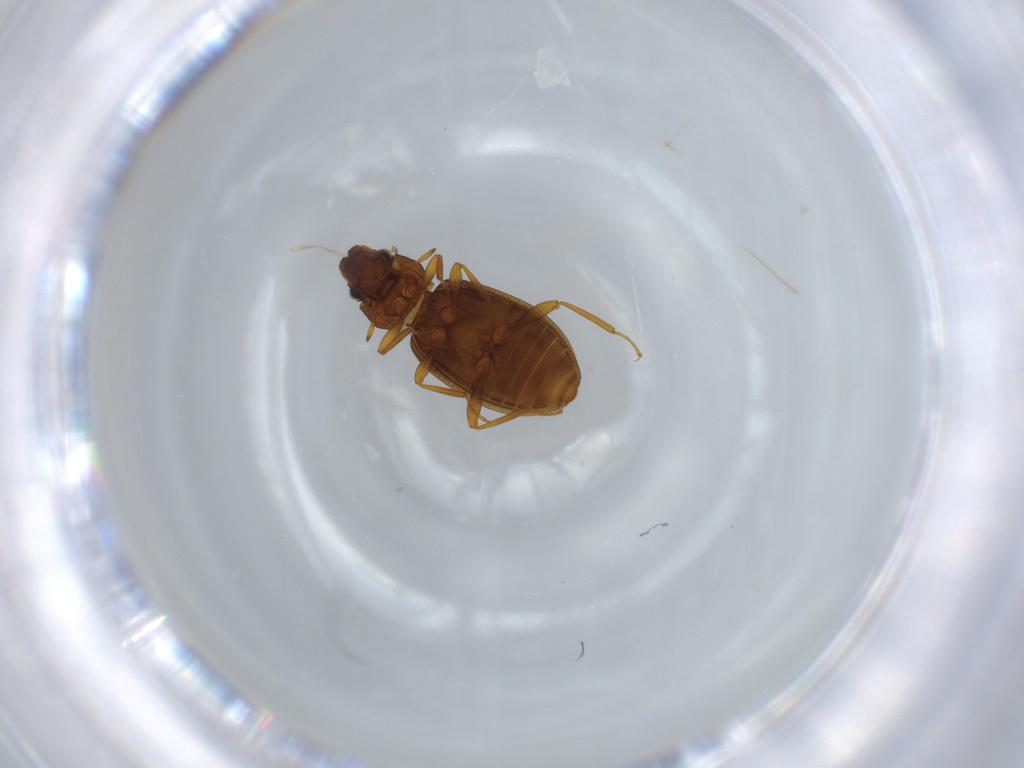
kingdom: Animalia
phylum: Arthropoda
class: Insecta
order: Coleoptera
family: Hydraenidae
